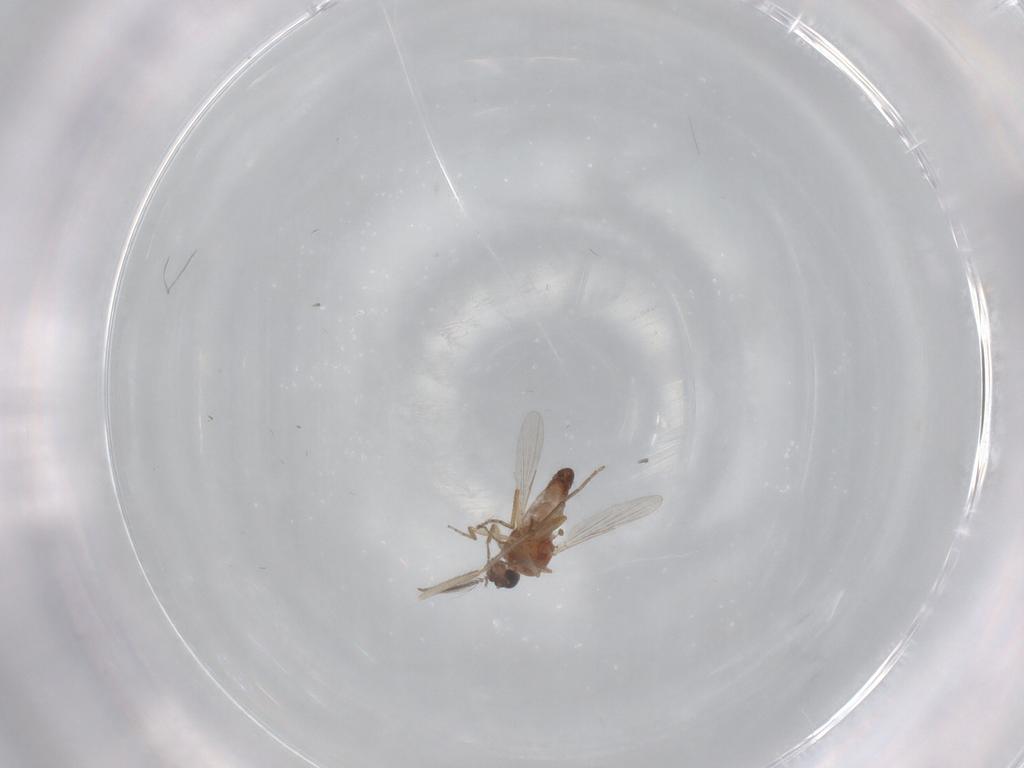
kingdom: Animalia
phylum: Arthropoda
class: Insecta
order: Diptera
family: Ceratopogonidae
